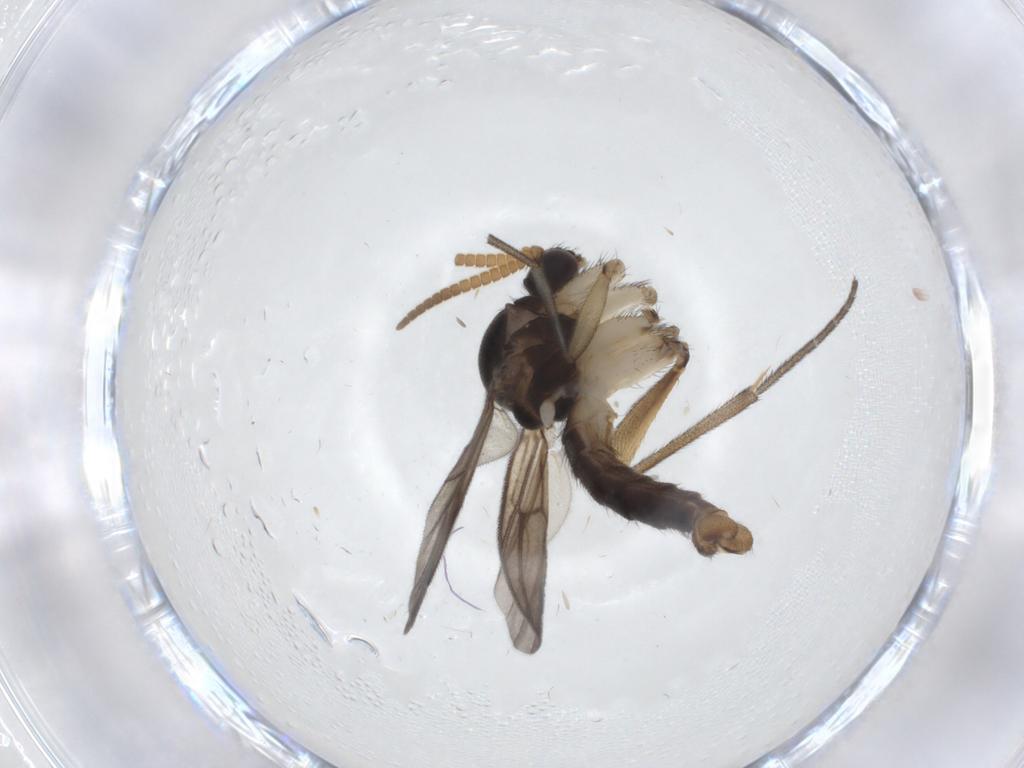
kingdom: Animalia
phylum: Arthropoda
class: Insecta
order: Diptera
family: Mycetophilidae
